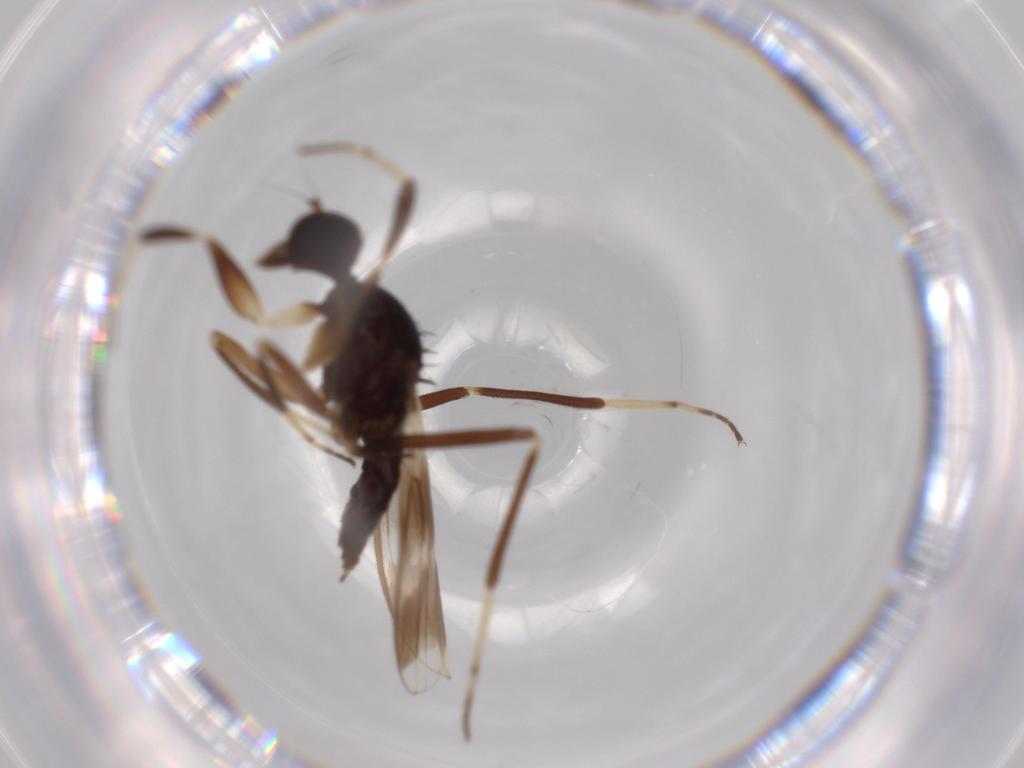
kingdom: Animalia
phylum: Arthropoda
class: Insecta
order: Diptera
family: Hybotidae
